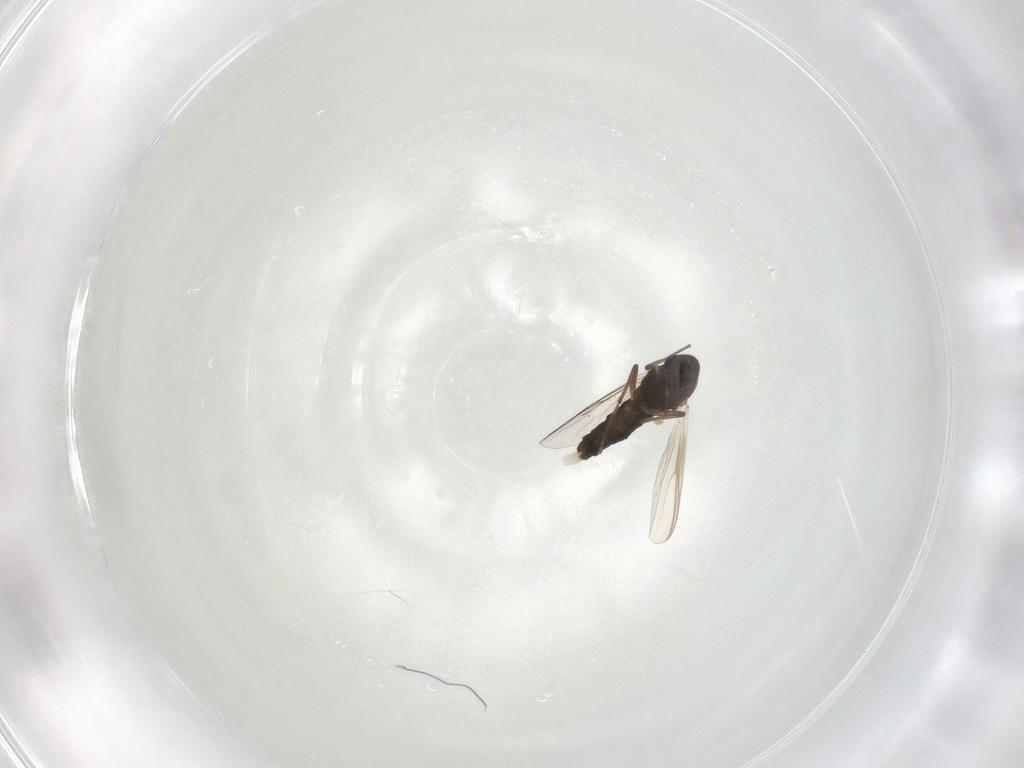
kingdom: Animalia
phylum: Arthropoda
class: Insecta
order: Diptera
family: Chironomidae
